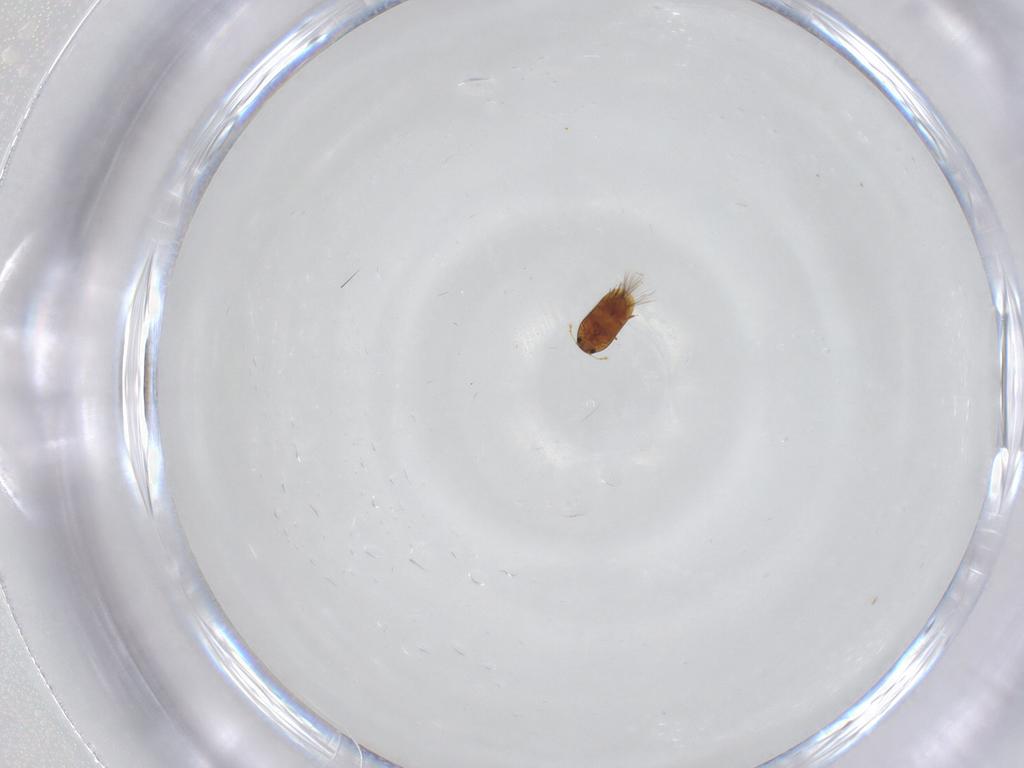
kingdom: Animalia
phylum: Arthropoda
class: Insecta
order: Coleoptera
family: Ptiliidae
